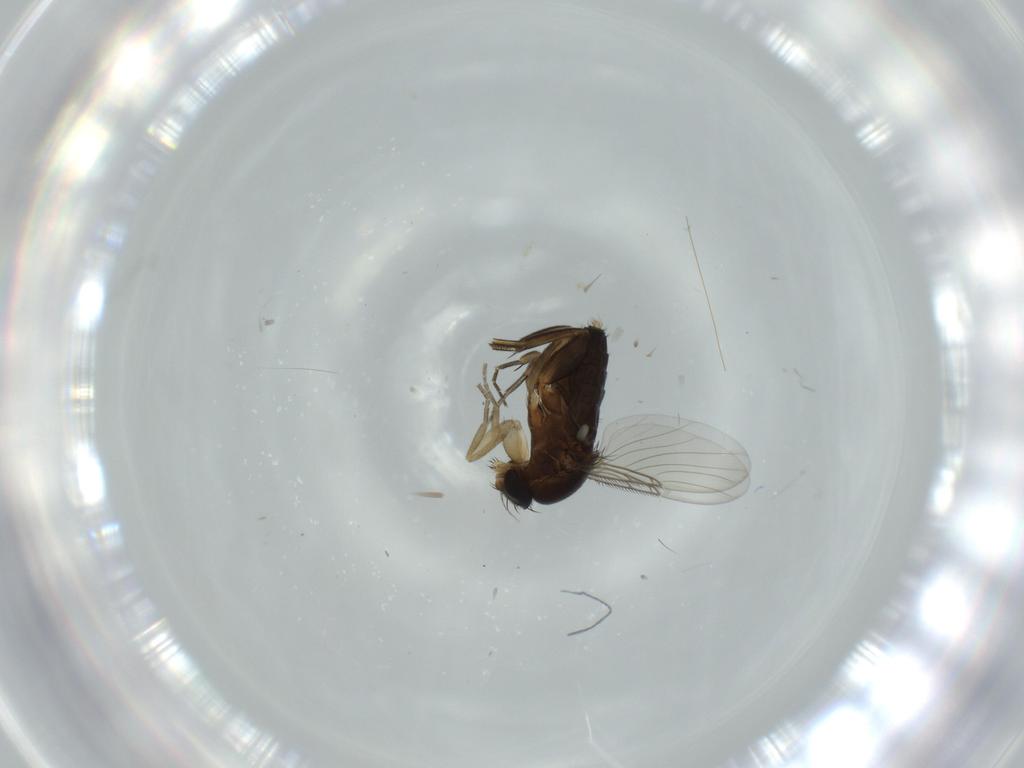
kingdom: Animalia
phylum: Arthropoda
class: Insecta
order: Diptera
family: Phoridae
